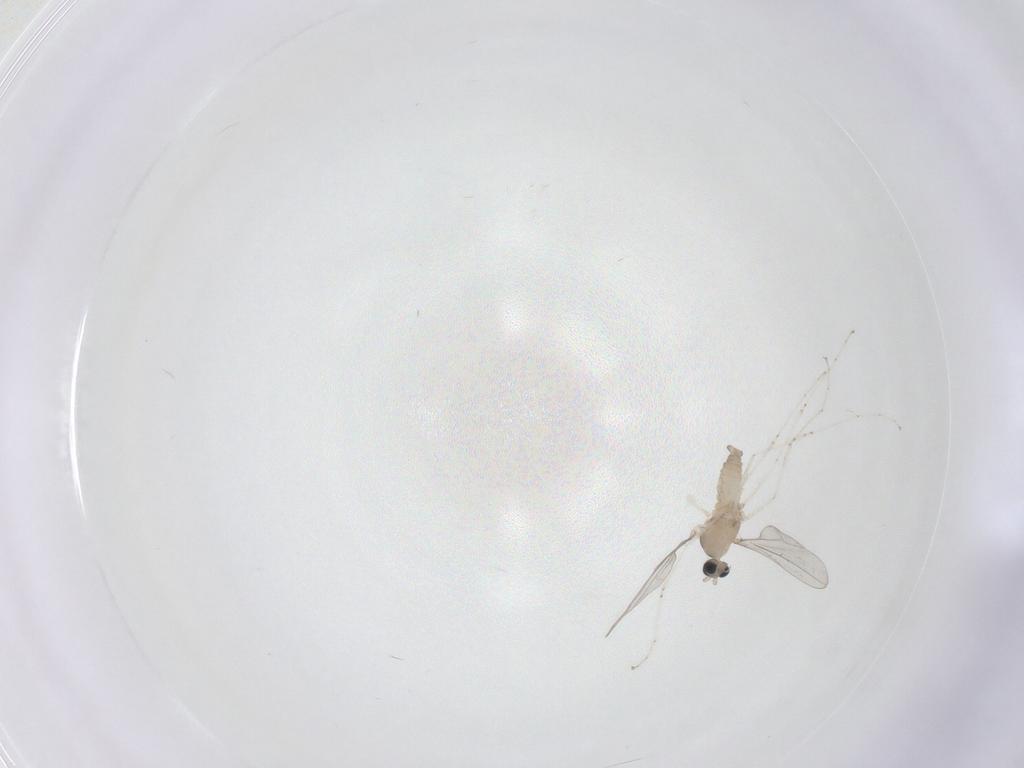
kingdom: Animalia
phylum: Arthropoda
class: Insecta
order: Diptera
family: Cecidomyiidae
